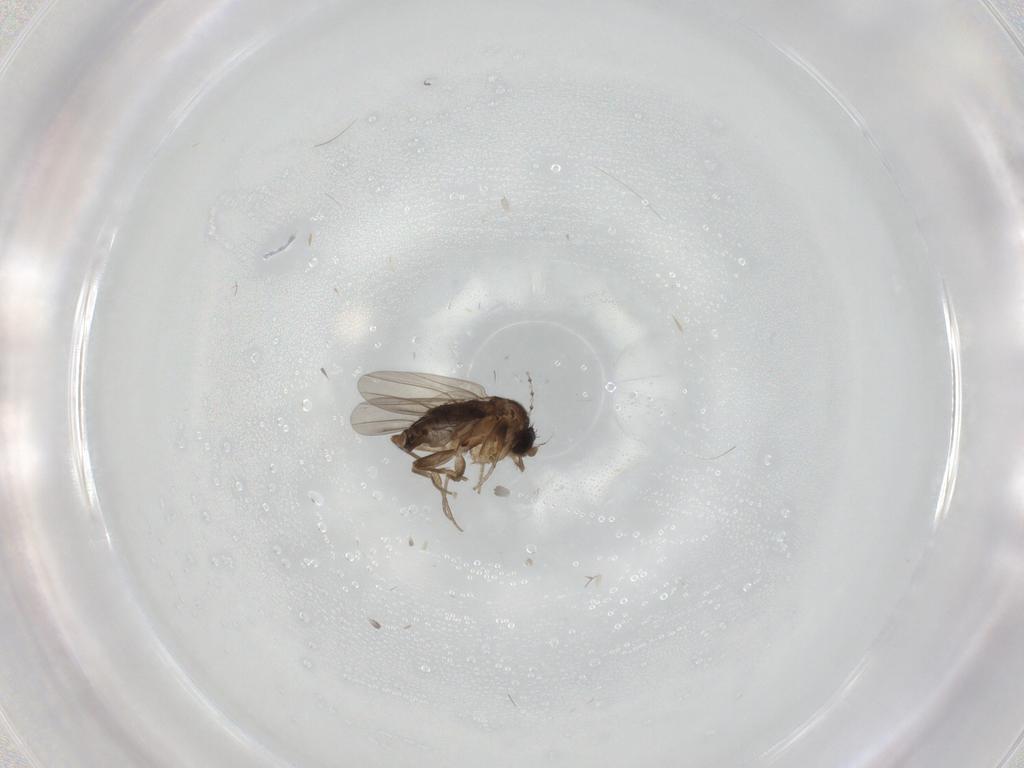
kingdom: Animalia
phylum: Arthropoda
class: Insecta
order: Diptera
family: Phoridae
